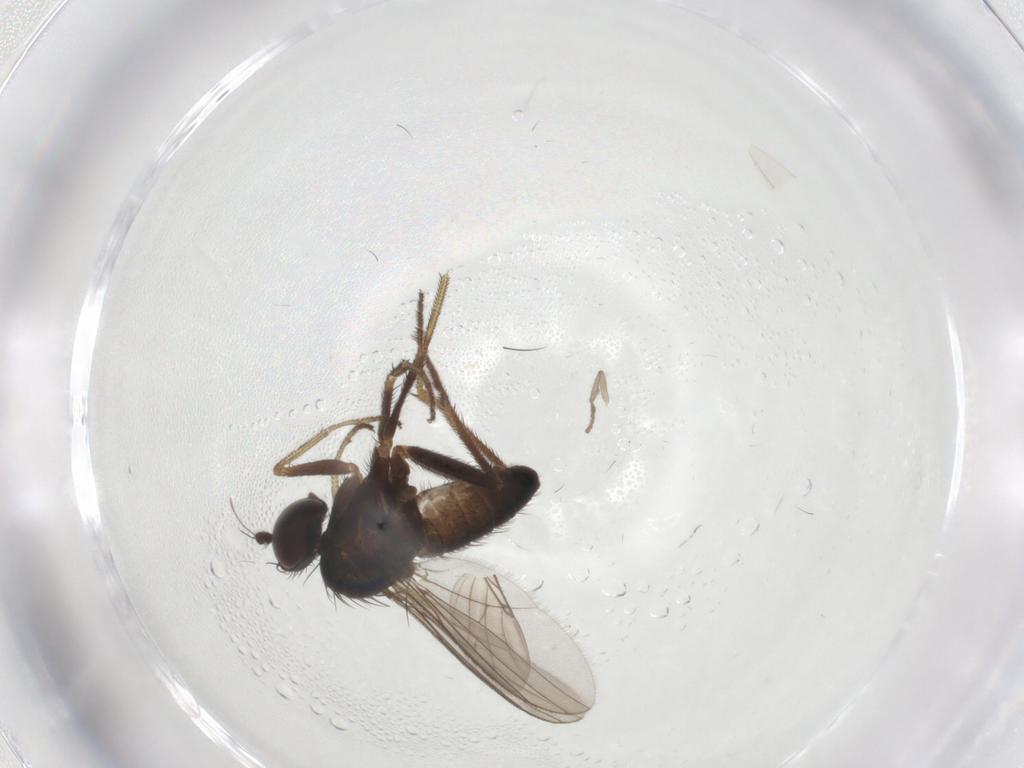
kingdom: Animalia
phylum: Arthropoda
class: Insecta
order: Diptera
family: Psychodidae
